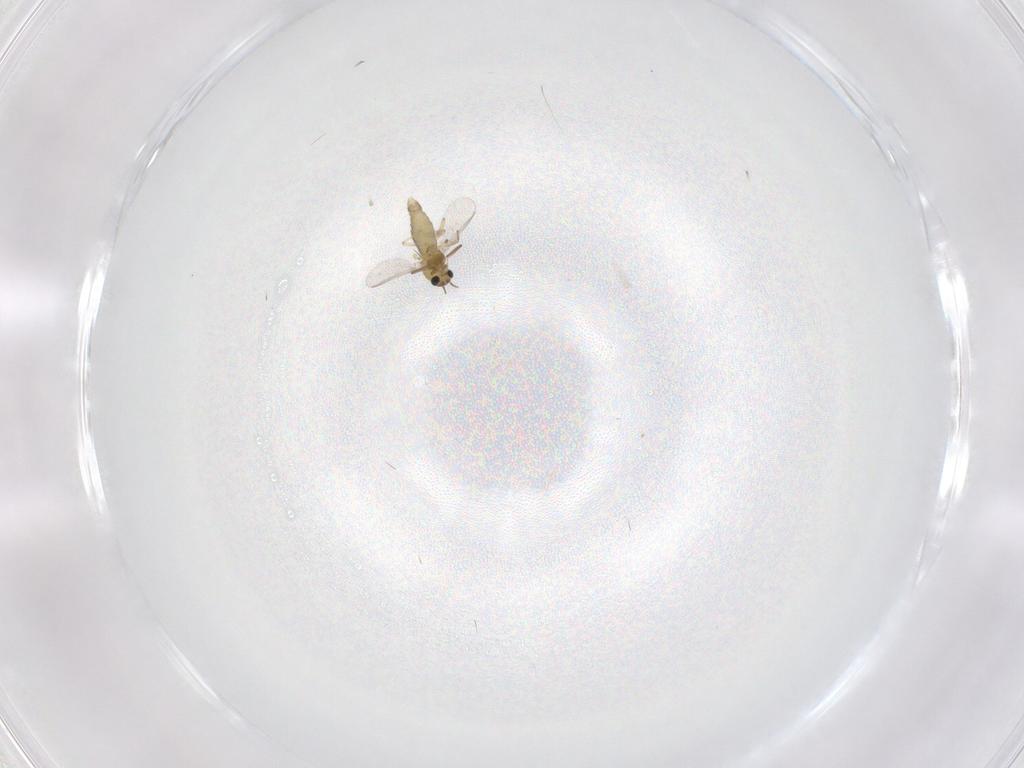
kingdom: Animalia
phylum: Arthropoda
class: Insecta
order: Diptera
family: Chironomidae
